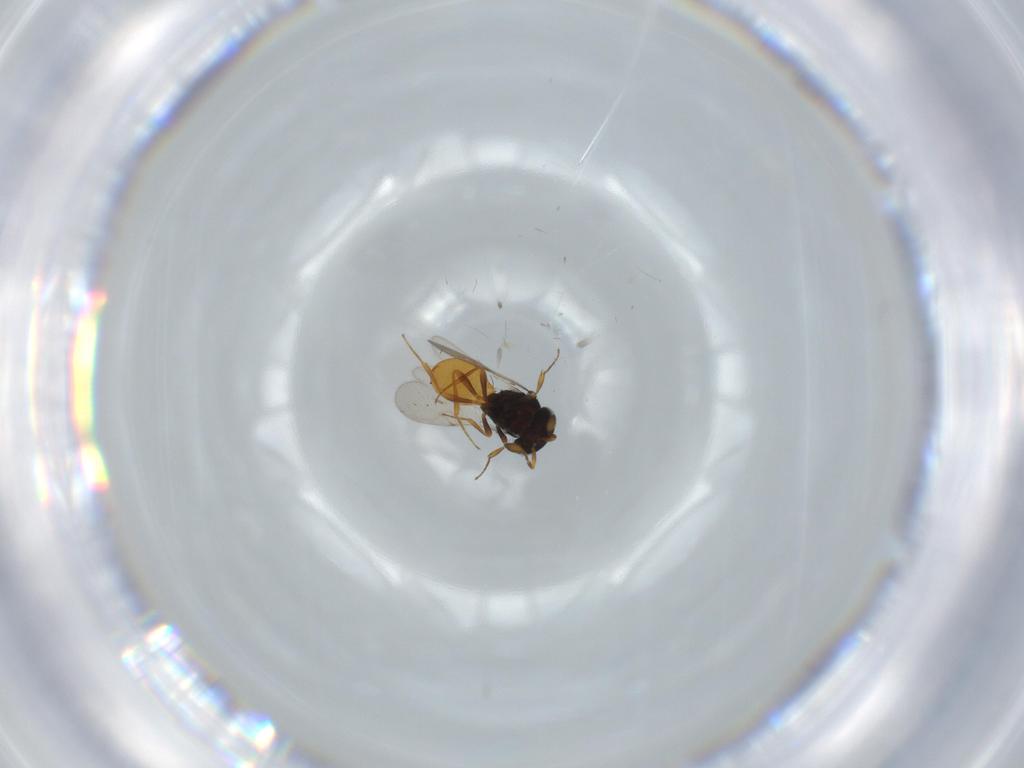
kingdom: Animalia
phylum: Arthropoda
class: Insecta
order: Hymenoptera
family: Scelionidae
